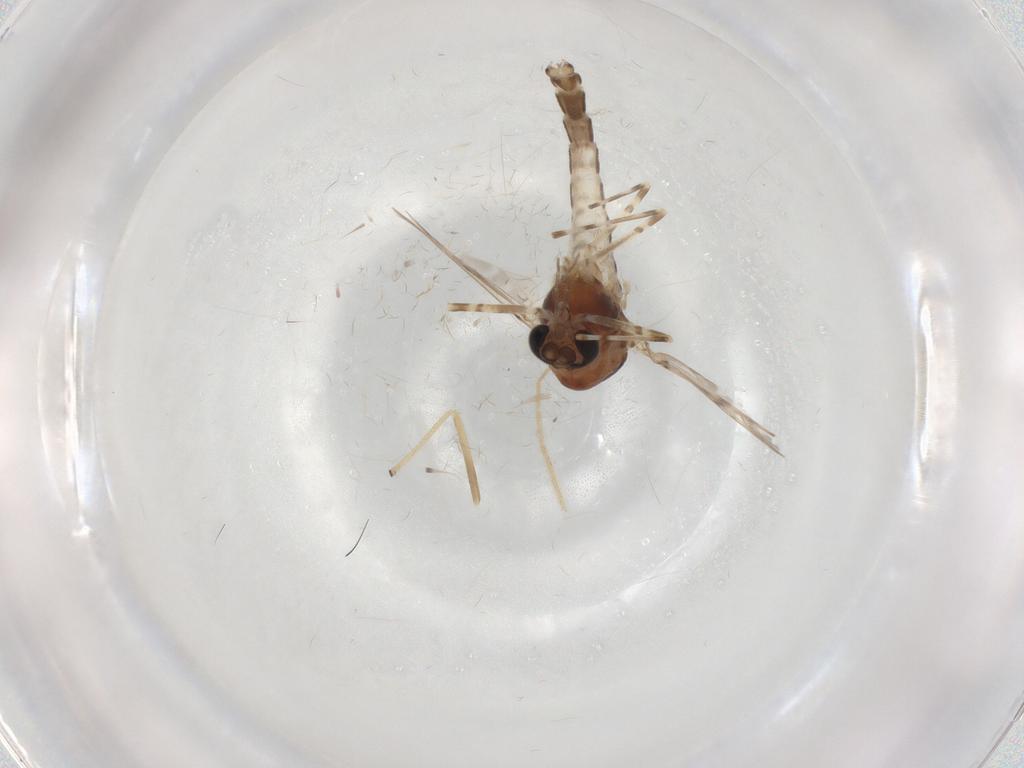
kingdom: Animalia
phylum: Arthropoda
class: Insecta
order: Diptera
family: Chironomidae
